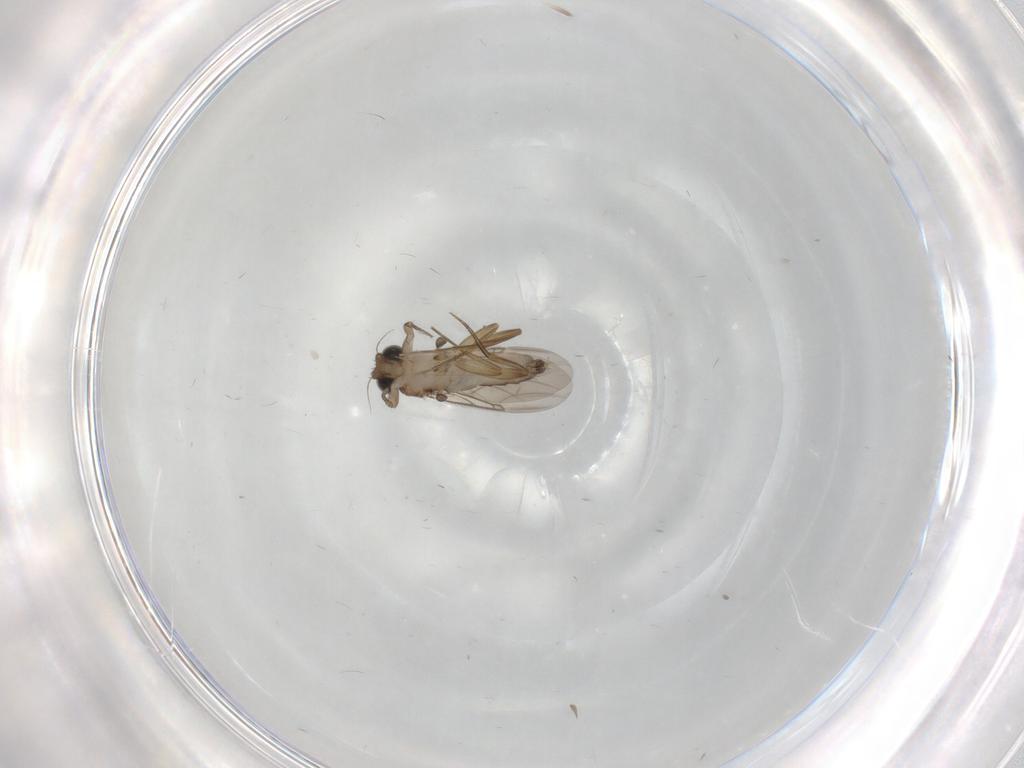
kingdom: Animalia
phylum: Arthropoda
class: Insecta
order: Diptera
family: Phoridae
